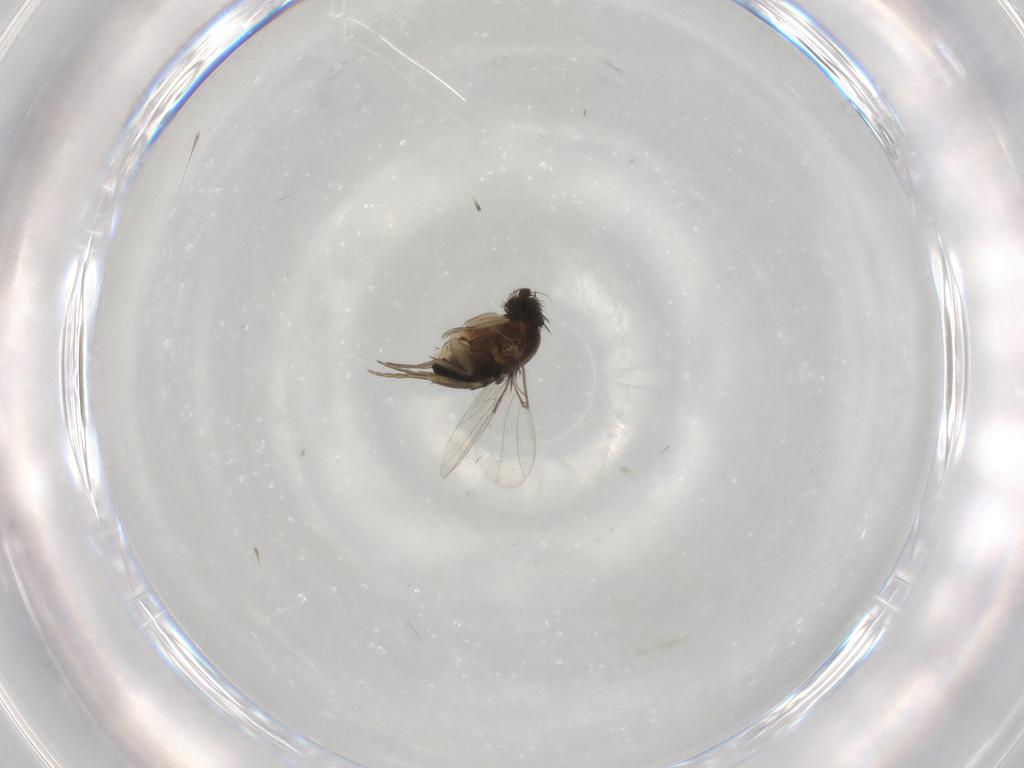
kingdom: Animalia
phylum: Arthropoda
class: Insecta
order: Diptera
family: Phoridae
